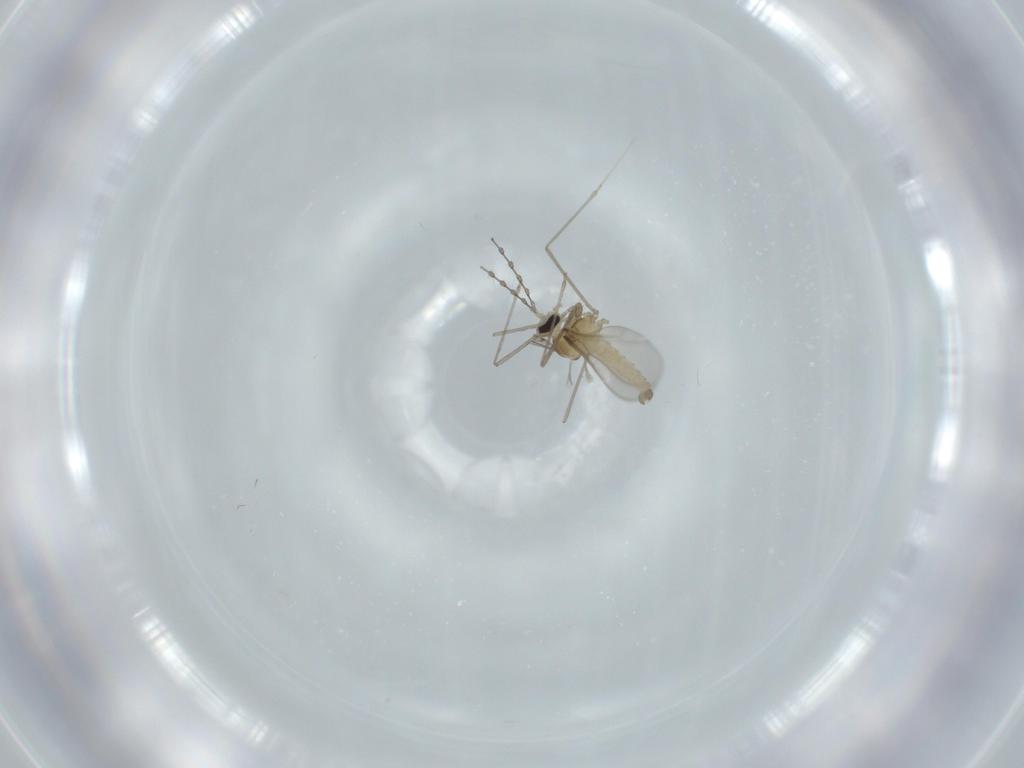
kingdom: Animalia
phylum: Arthropoda
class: Insecta
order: Diptera
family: Cecidomyiidae
